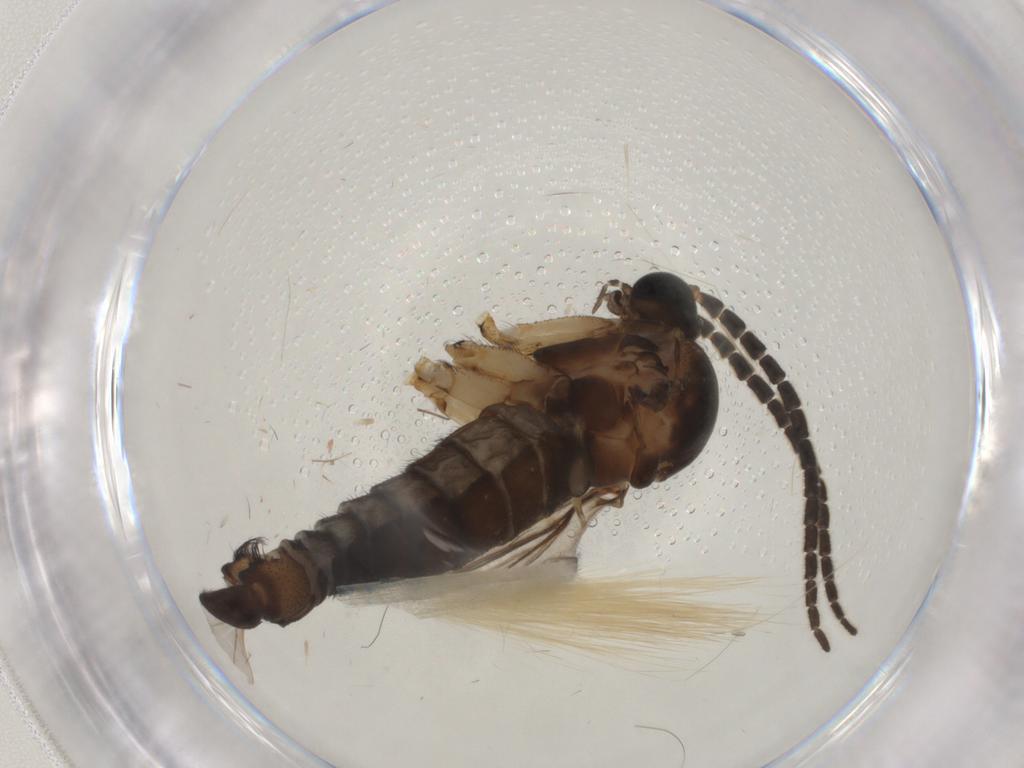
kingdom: Animalia
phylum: Arthropoda
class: Insecta
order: Diptera
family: Sciaridae
